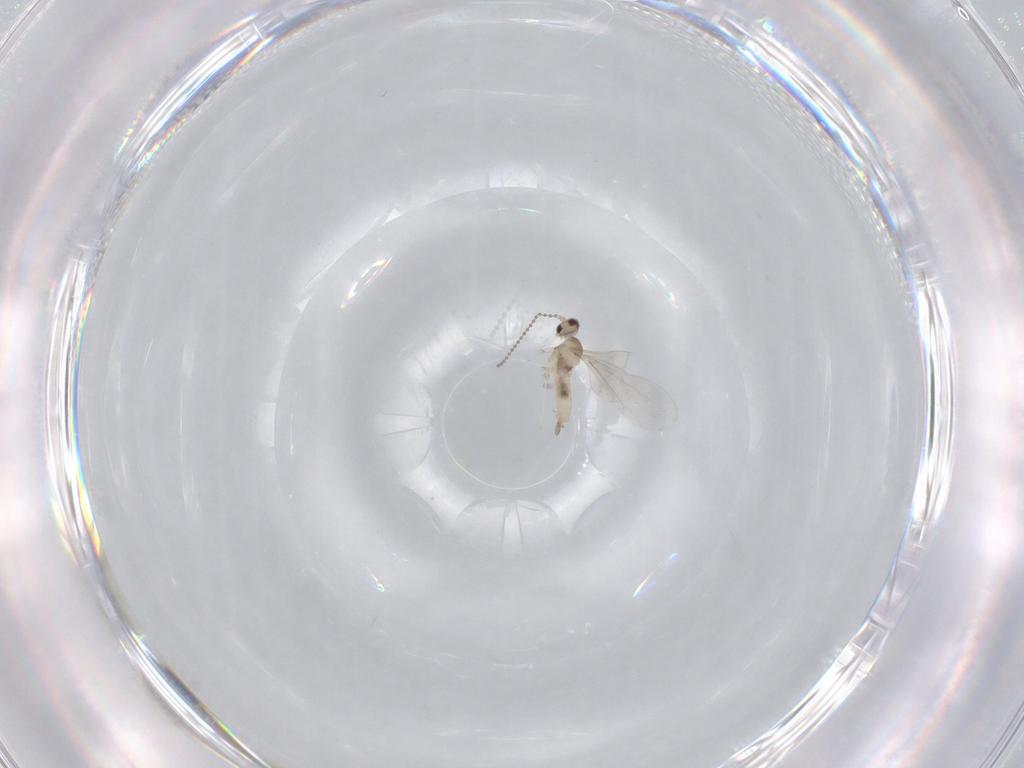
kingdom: Animalia
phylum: Arthropoda
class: Insecta
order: Diptera
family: Cecidomyiidae
